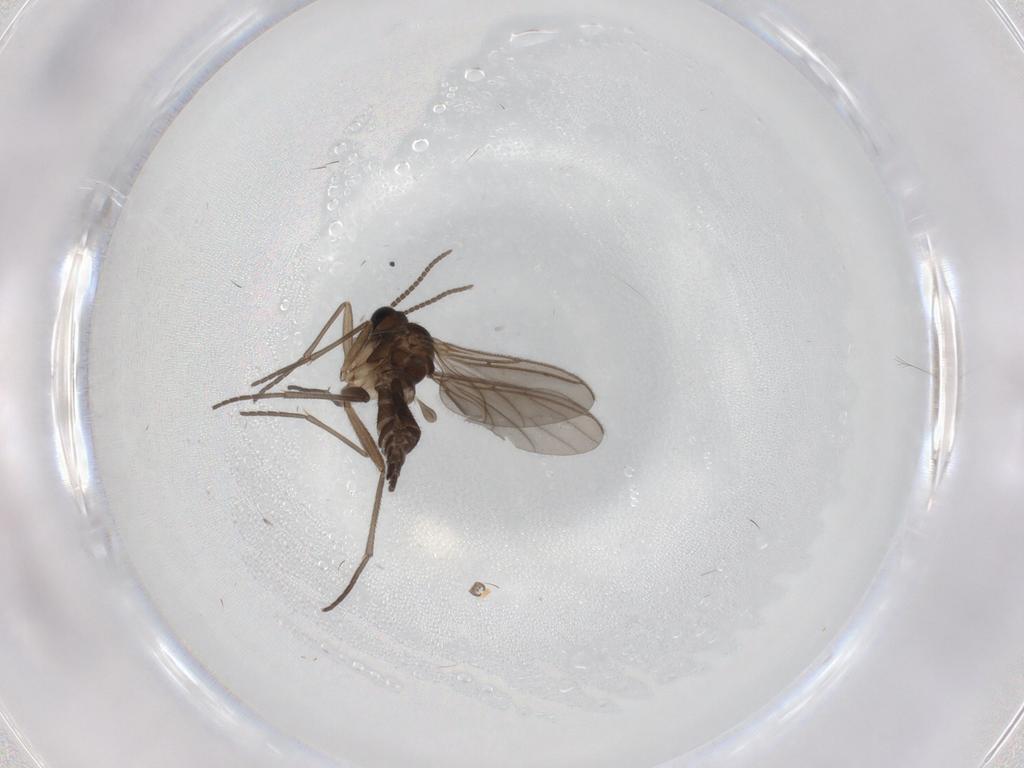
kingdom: Animalia
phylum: Arthropoda
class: Insecta
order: Diptera
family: Sciaridae
